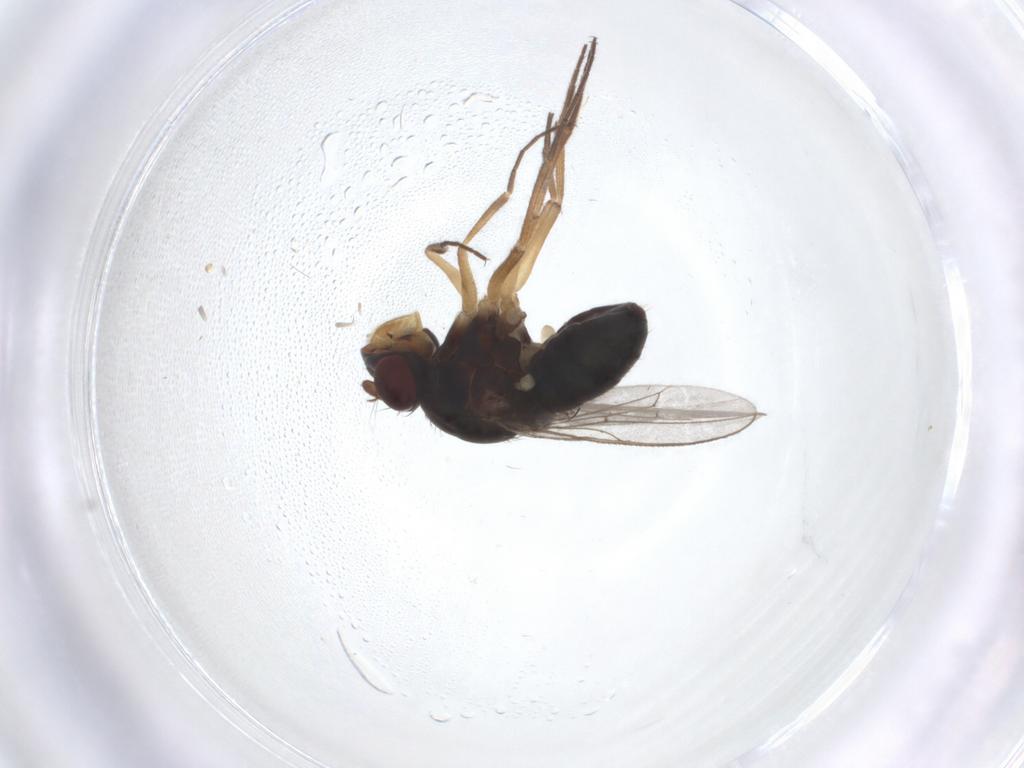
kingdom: Animalia
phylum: Arthropoda
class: Insecta
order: Diptera
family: Ephydridae
